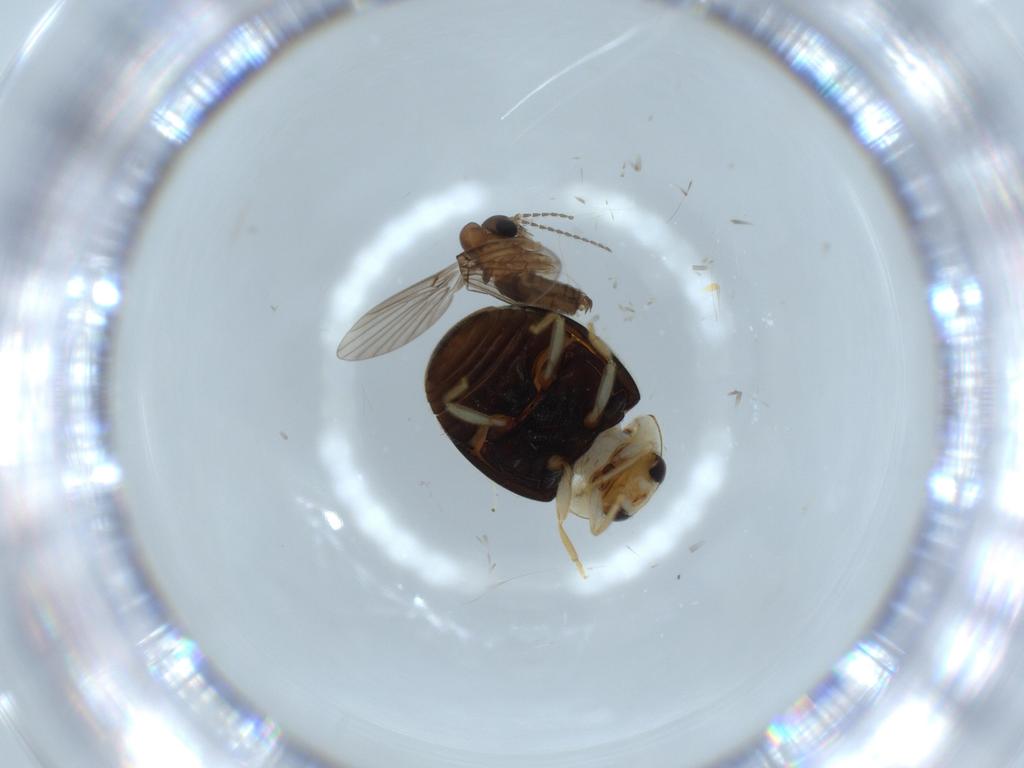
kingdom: Animalia
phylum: Arthropoda
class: Insecta
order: Coleoptera
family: Coccinellidae
